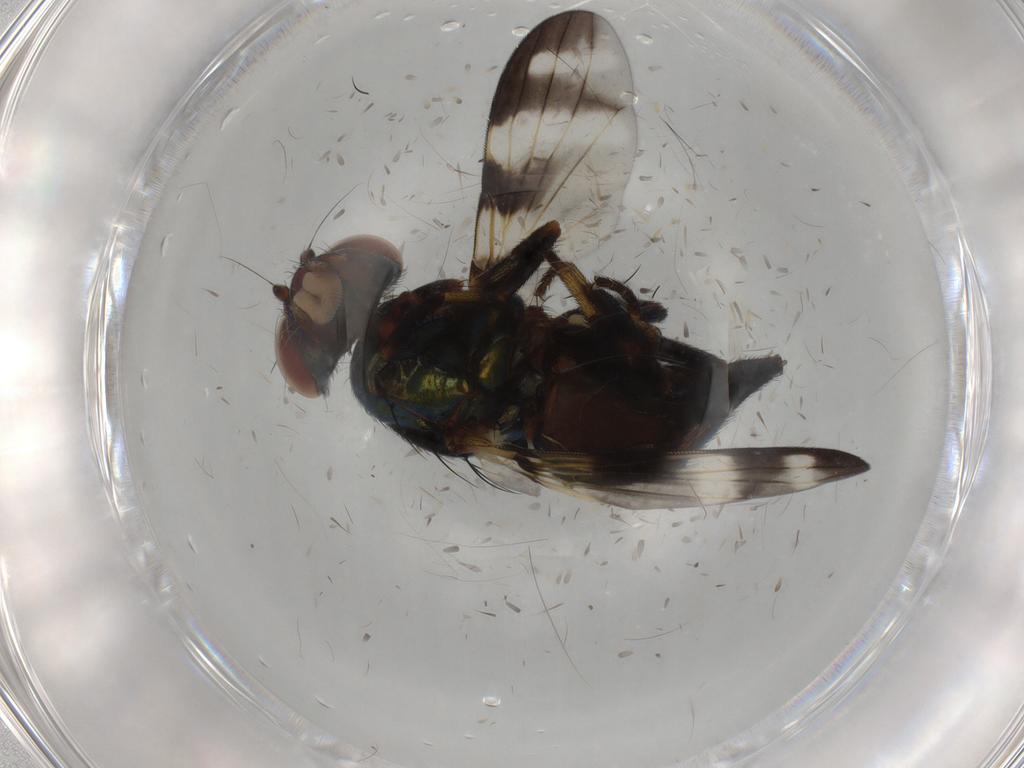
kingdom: Animalia
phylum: Arthropoda
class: Insecta
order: Diptera
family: Ulidiidae
